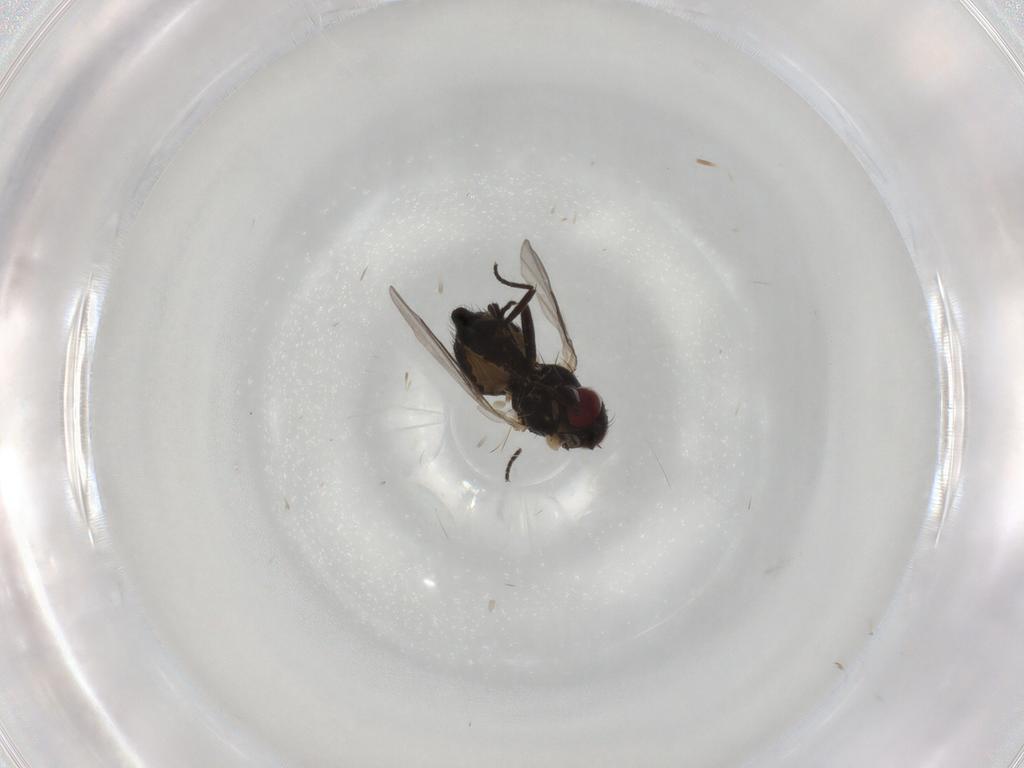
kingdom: Animalia
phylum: Arthropoda
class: Insecta
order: Diptera
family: Agromyzidae
